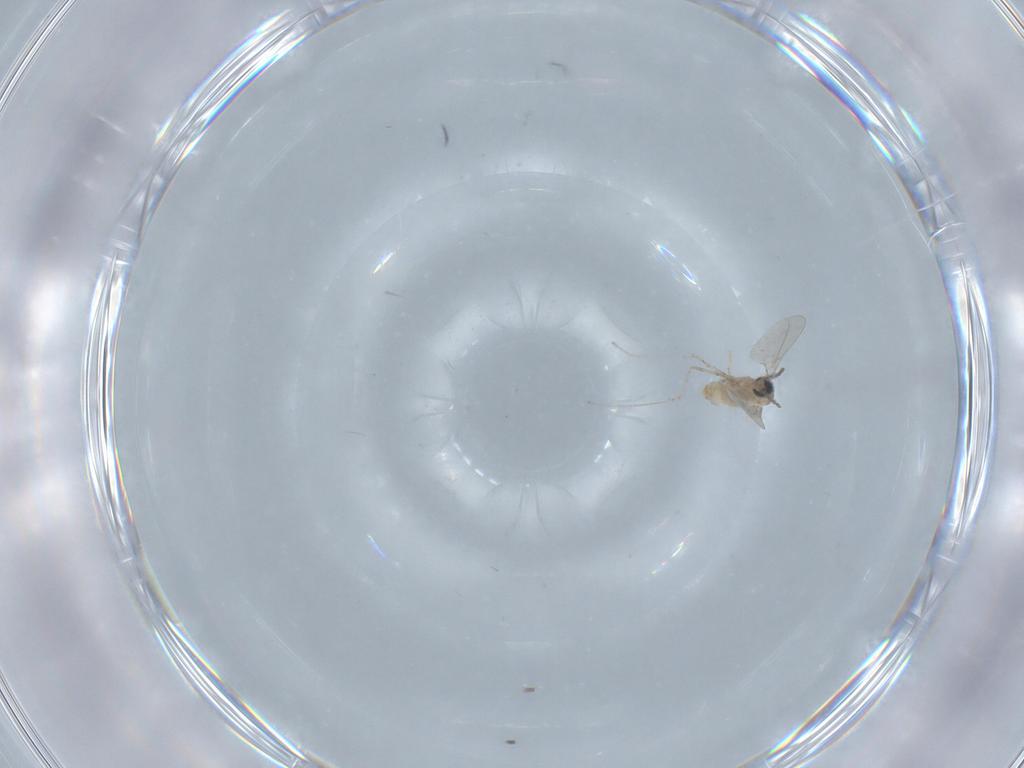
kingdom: Animalia
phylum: Arthropoda
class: Insecta
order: Diptera
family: Cecidomyiidae
